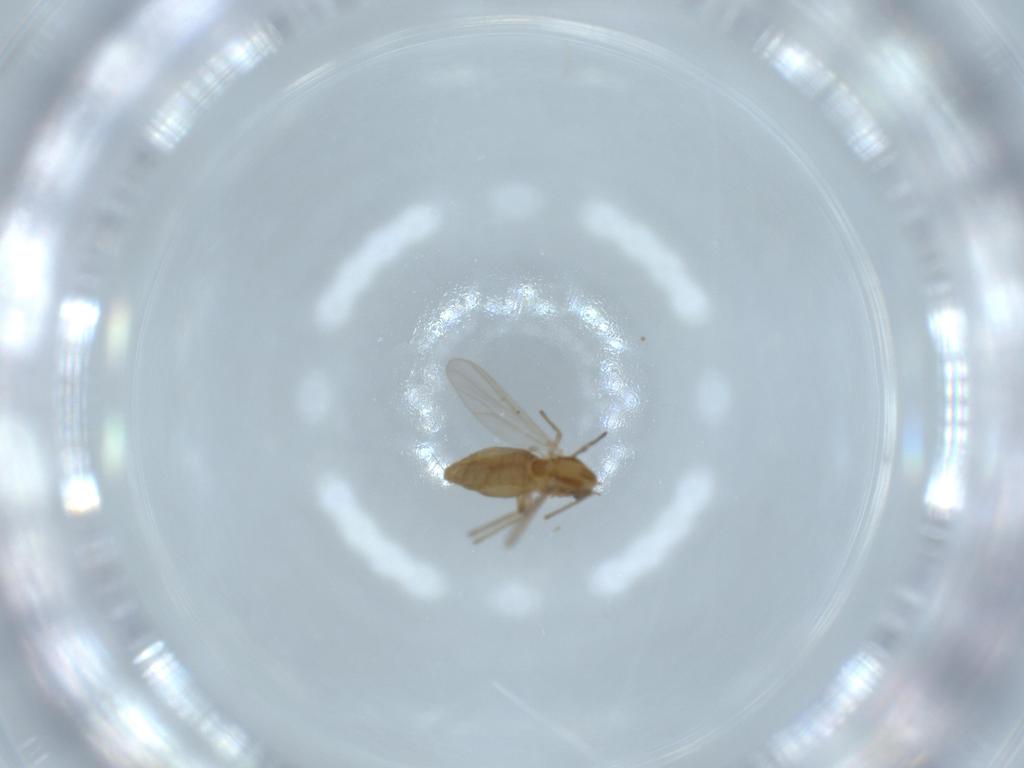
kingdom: Animalia
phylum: Arthropoda
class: Insecta
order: Diptera
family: Chironomidae
